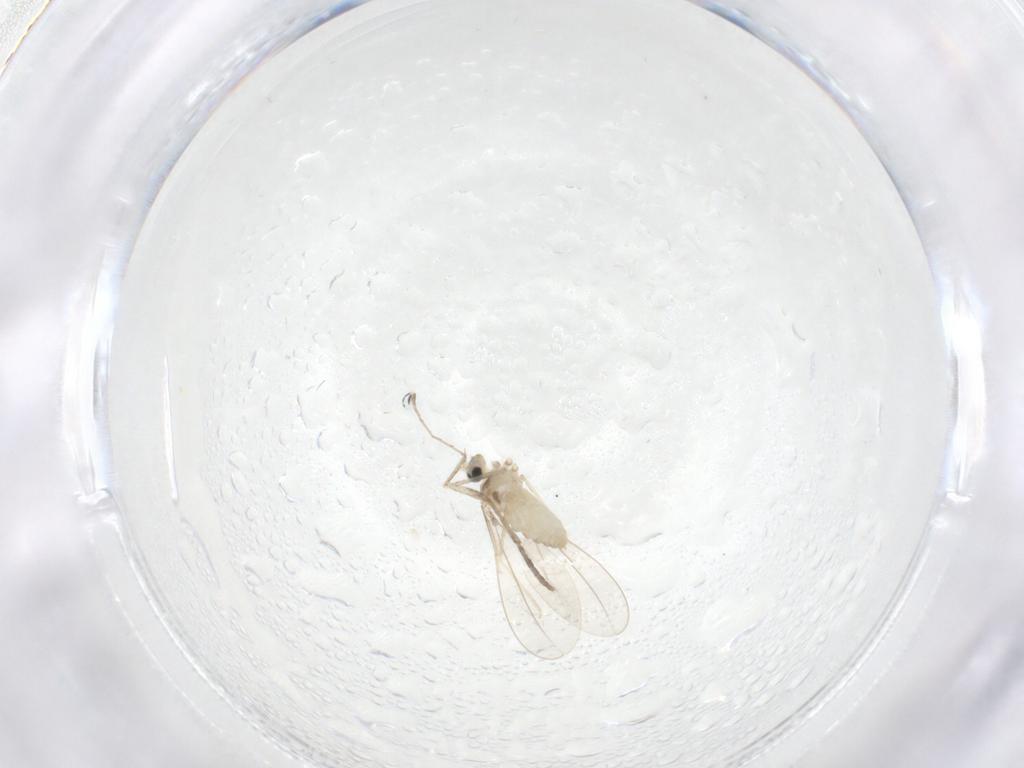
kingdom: Animalia
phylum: Arthropoda
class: Insecta
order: Diptera
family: Cecidomyiidae
